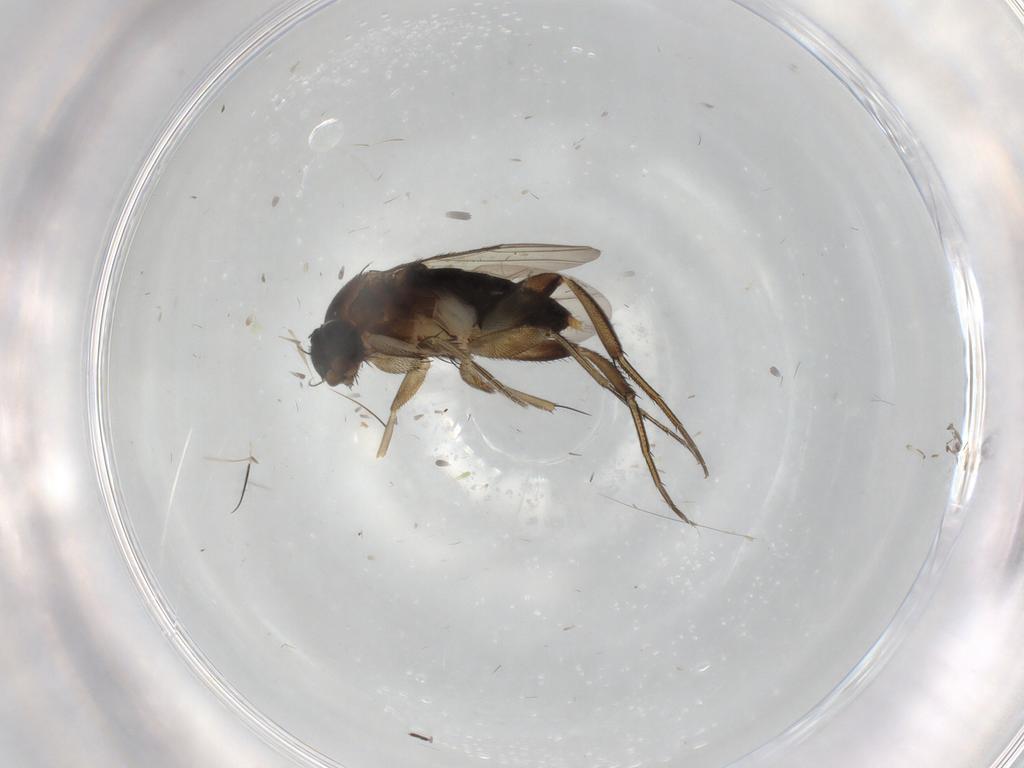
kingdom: Animalia
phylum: Arthropoda
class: Insecta
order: Diptera
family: Phoridae
